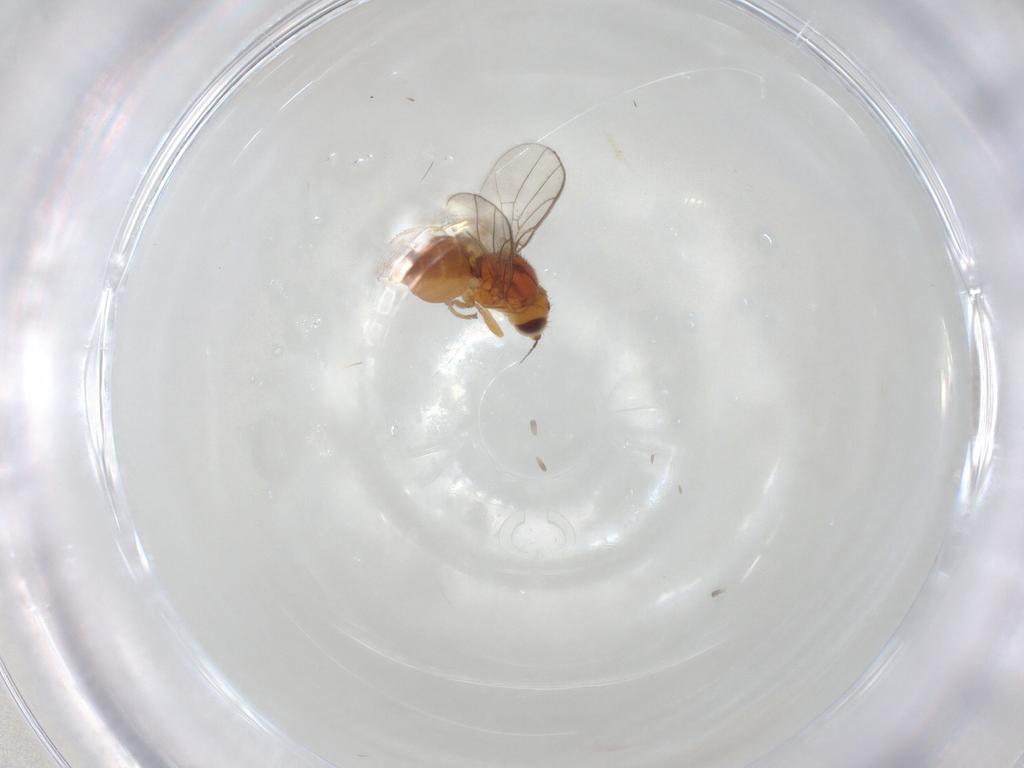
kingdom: Animalia
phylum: Arthropoda
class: Insecta
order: Diptera
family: Chloropidae
